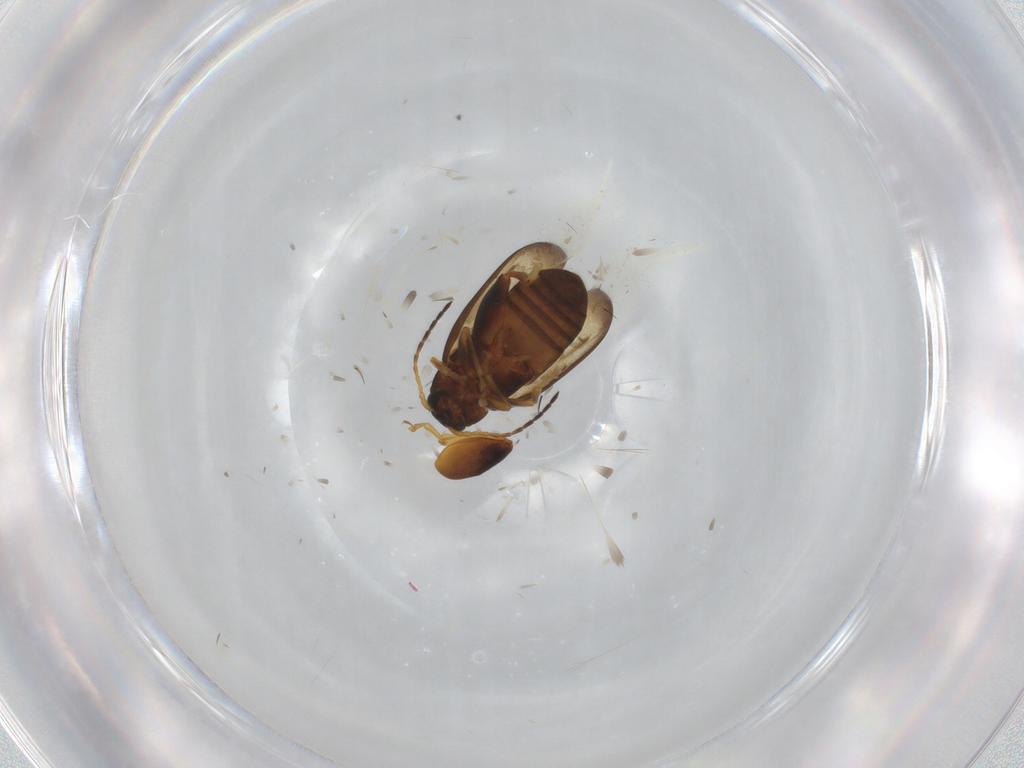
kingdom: Animalia
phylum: Arthropoda
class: Insecta
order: Coleoptera
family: Chrysomelidae
